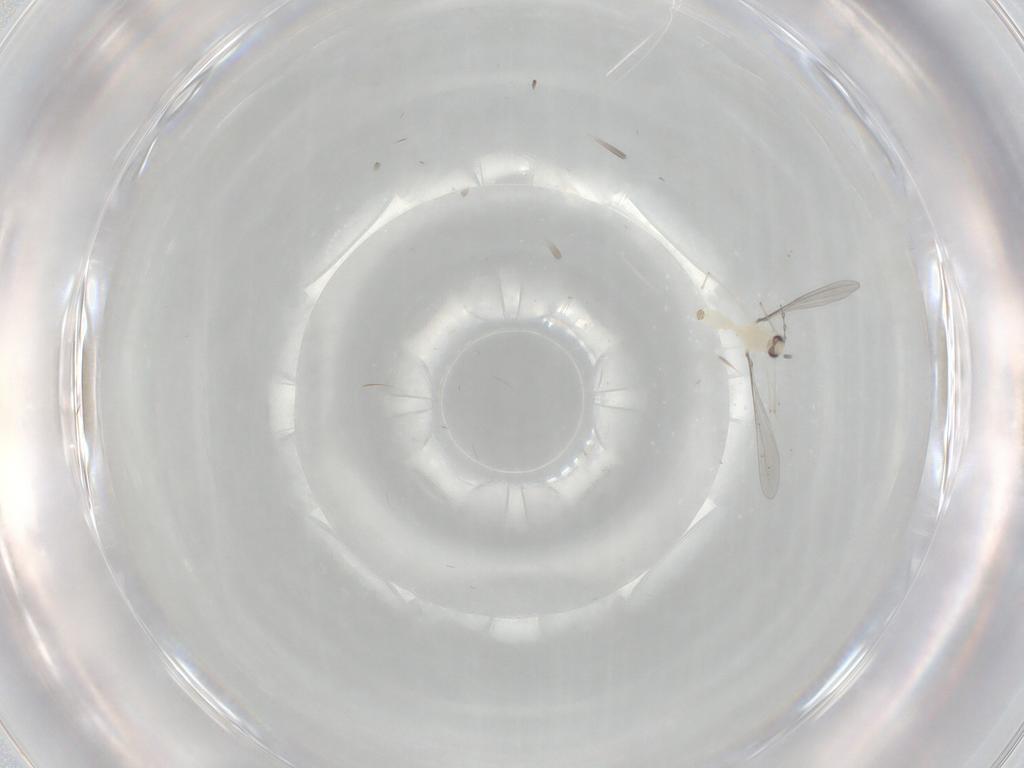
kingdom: Animalia
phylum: Arthropoda
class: Insecta
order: Diptera
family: Cecidomyiidae
